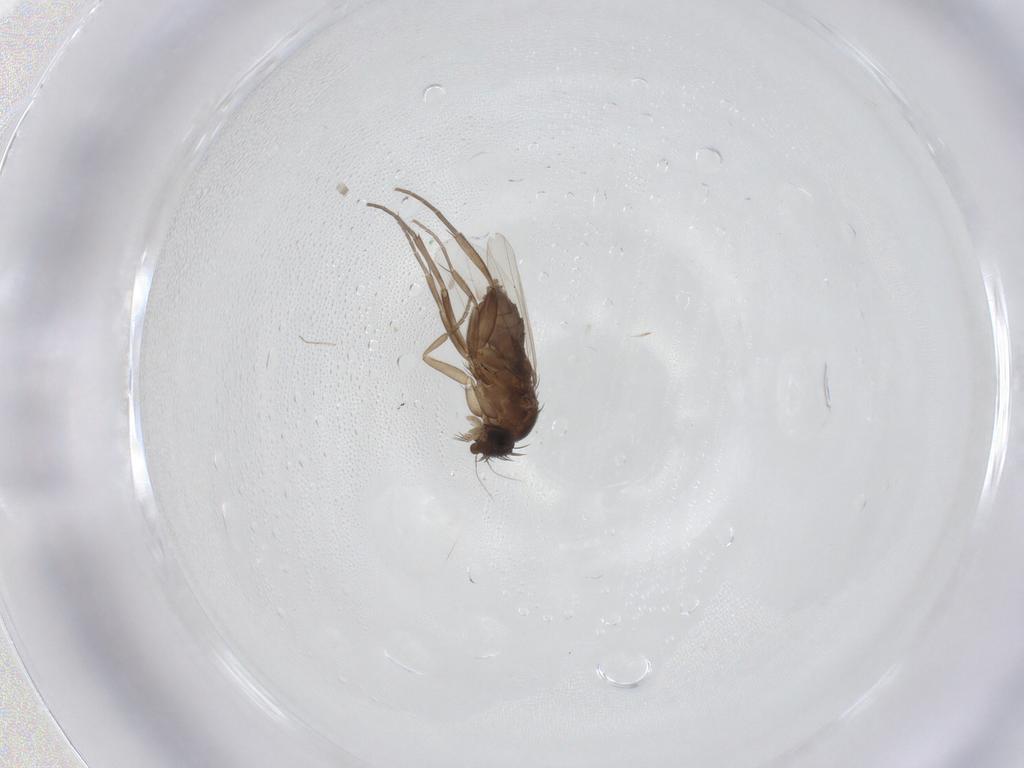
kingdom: Animalia
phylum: Arthropoda
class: Insecta
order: Diptera
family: Phoridae
